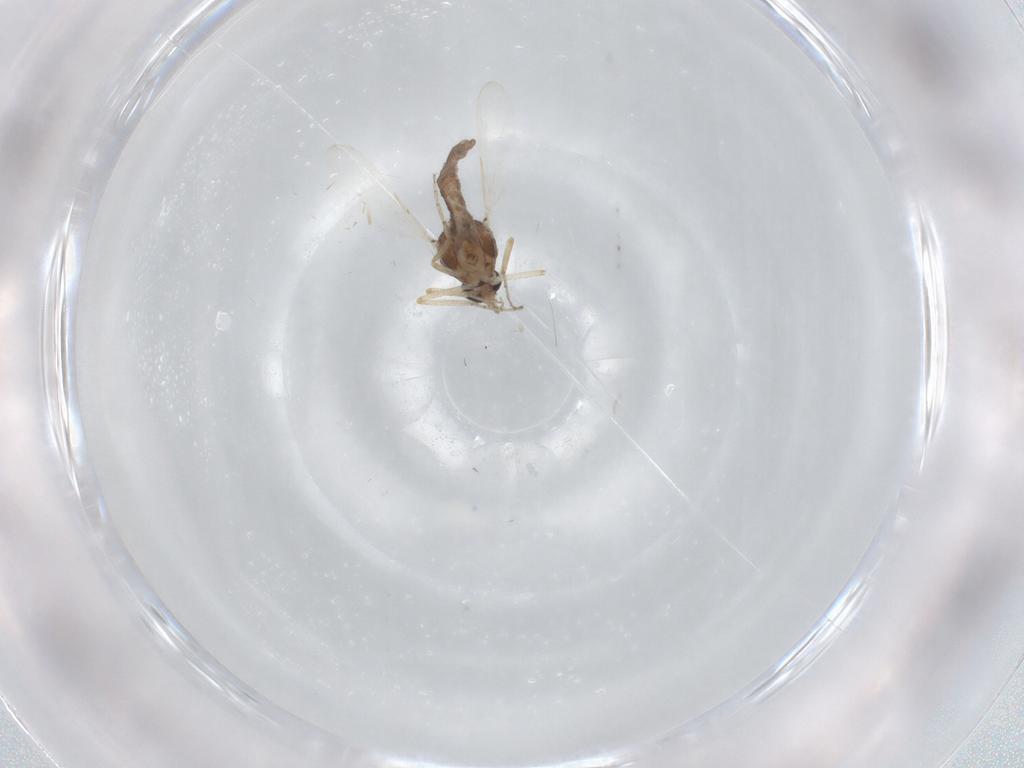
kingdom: Animalia
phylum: Arthropoda
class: Insecta
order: Diptera
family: Ceratopogonidae
